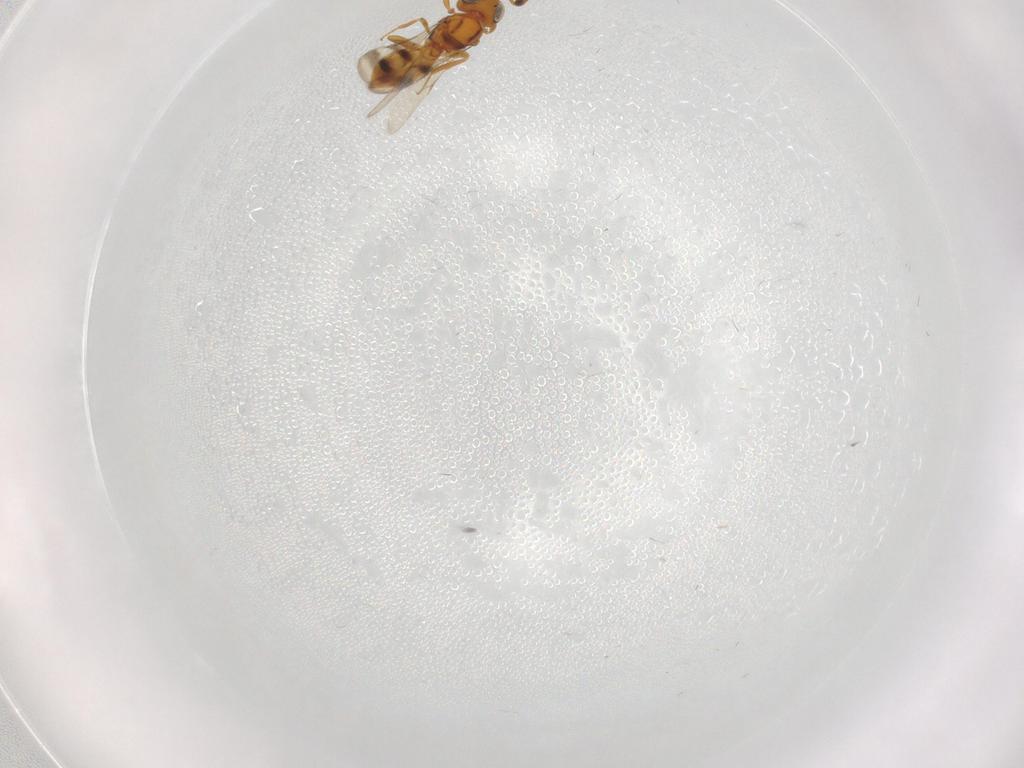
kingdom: Animalia
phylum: Arthropoda
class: Insecta
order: Hymenoptera
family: Scelionidae
